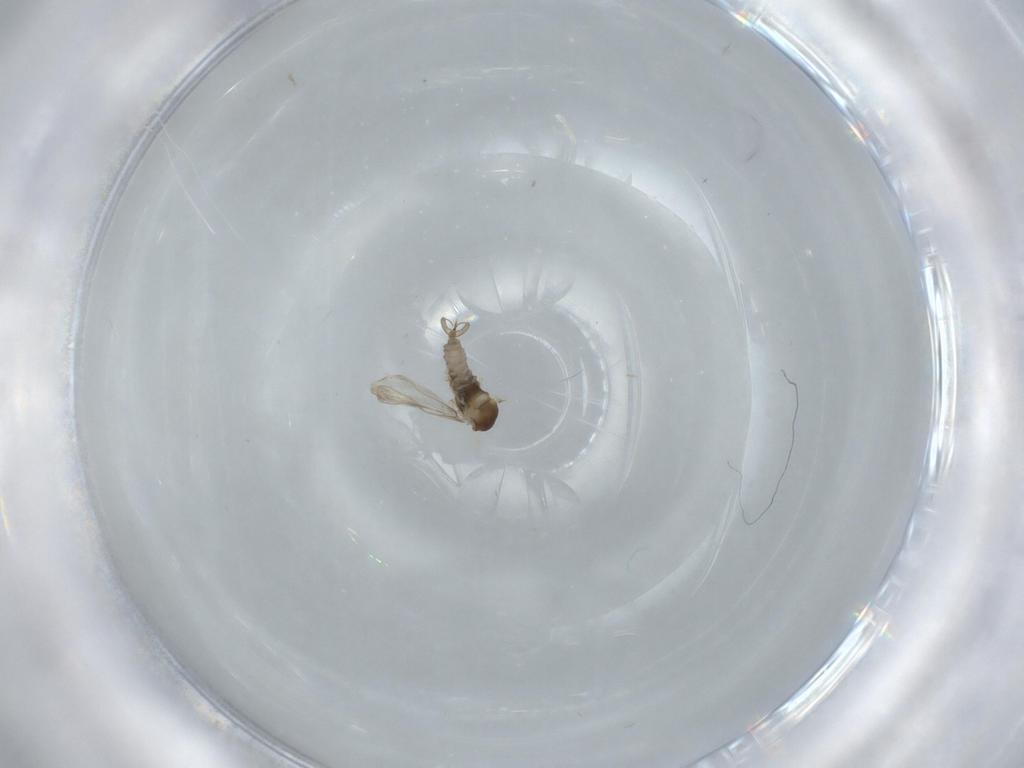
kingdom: Animalia
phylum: Arthropoda
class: Insecta
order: Diptera
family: Cecidomyiidae
